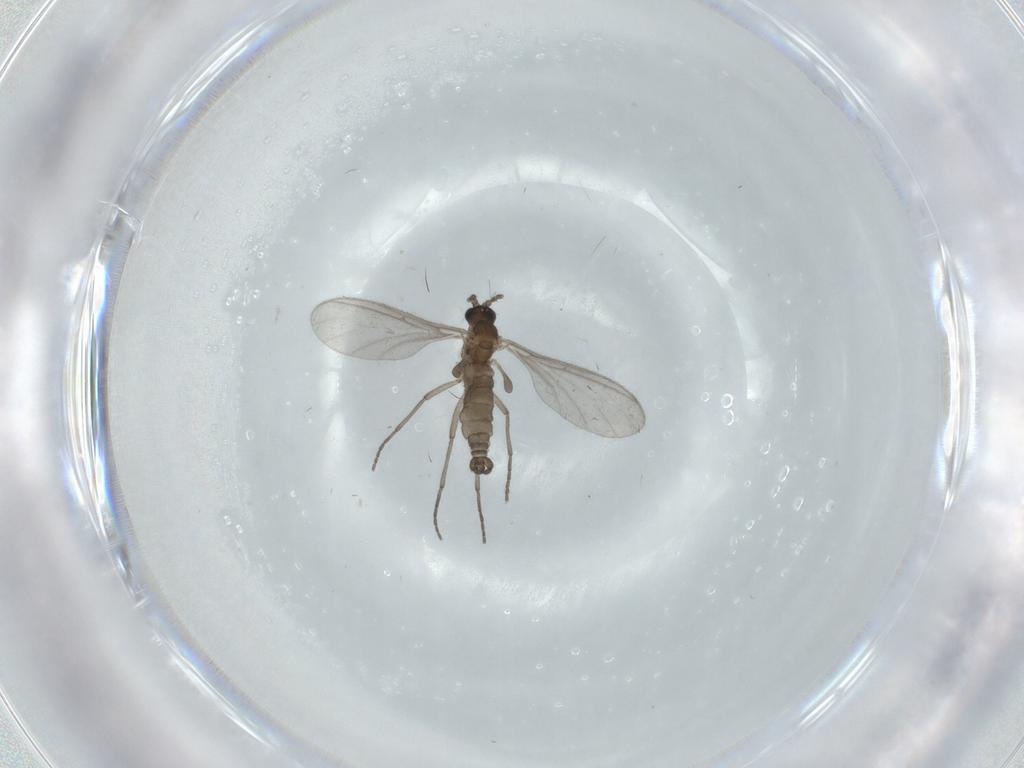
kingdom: Animalia
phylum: Arthropoda
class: Insecta
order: Diptera
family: Sciaridae
